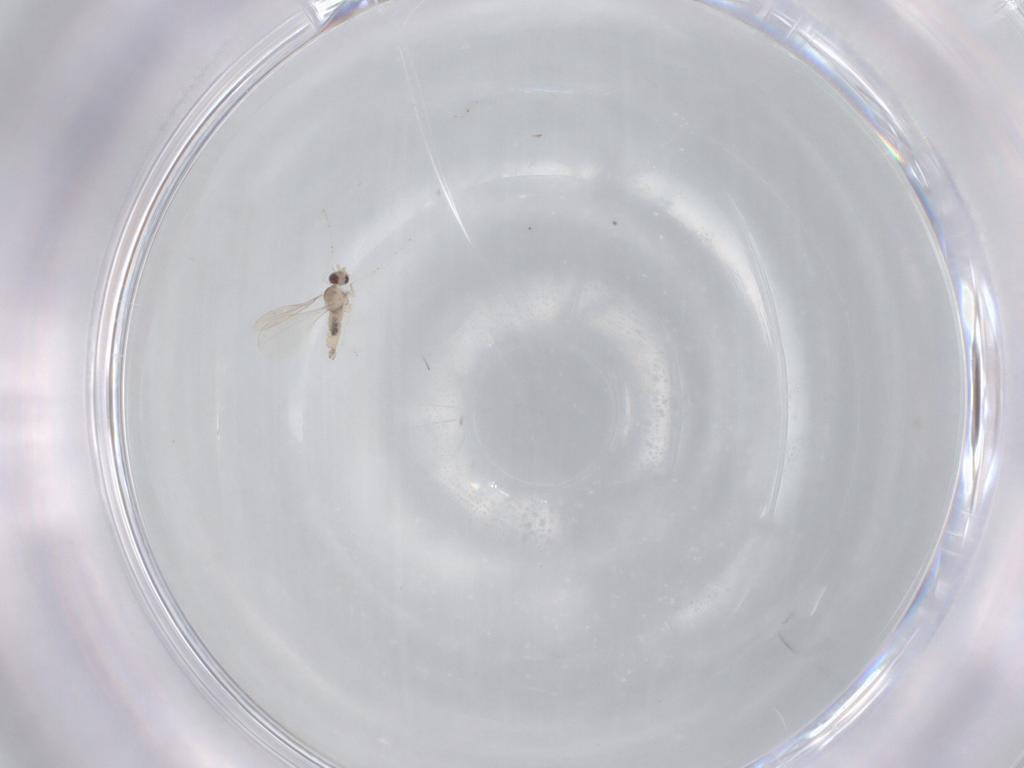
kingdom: Animalia
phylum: Arthropoda
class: Insecta
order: Diptera
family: Cecidomyiidae
